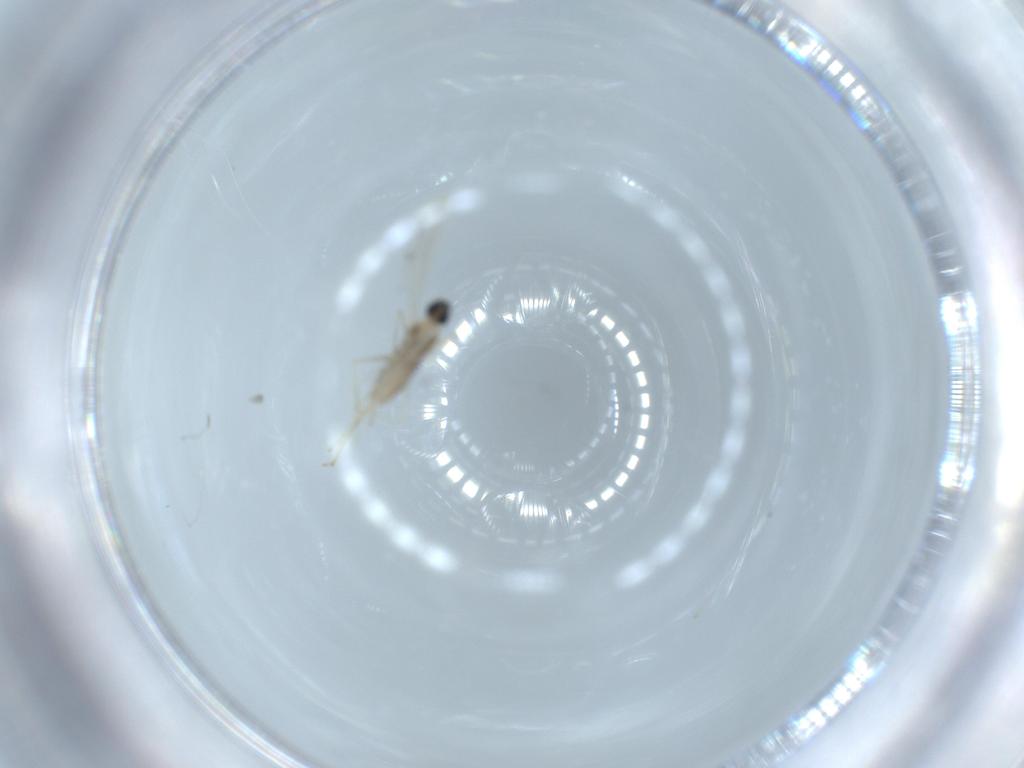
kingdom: Animalia
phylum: Arthropoda
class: Insecta
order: Diptera
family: Cecidomyiidae
